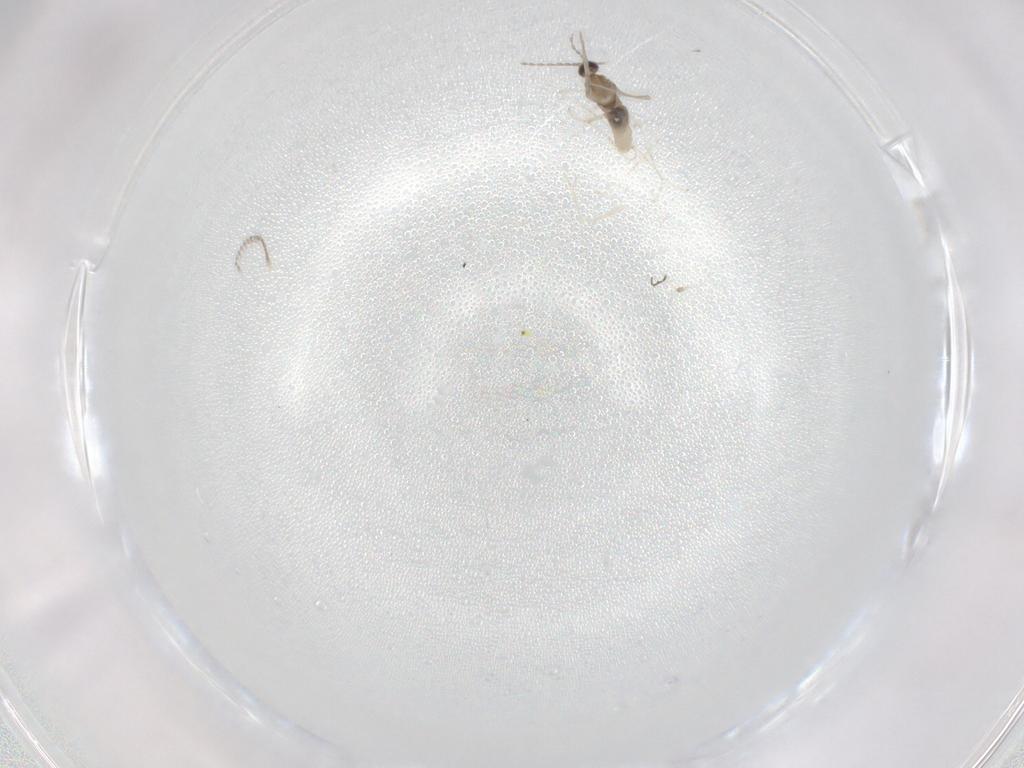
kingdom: Animalia
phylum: Arthropoda
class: Insecta
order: Diptera
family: Cecidomyiidae
